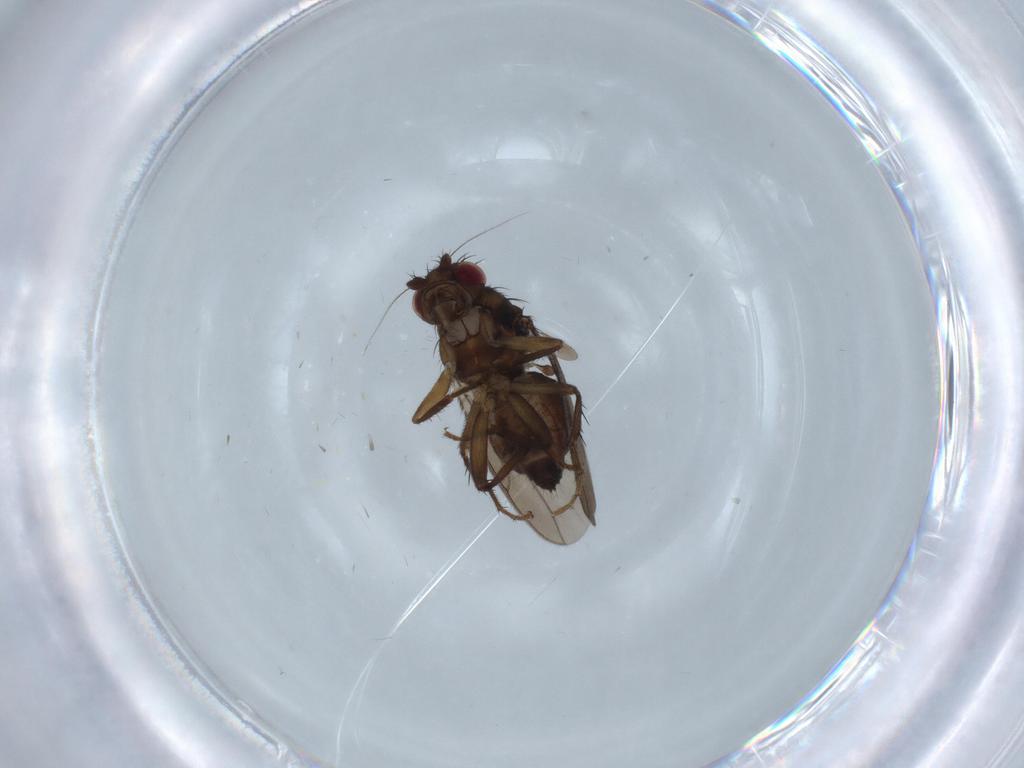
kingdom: Animalia
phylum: Arthropoda
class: Insecta
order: Diptera
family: Sphaeroceridae
